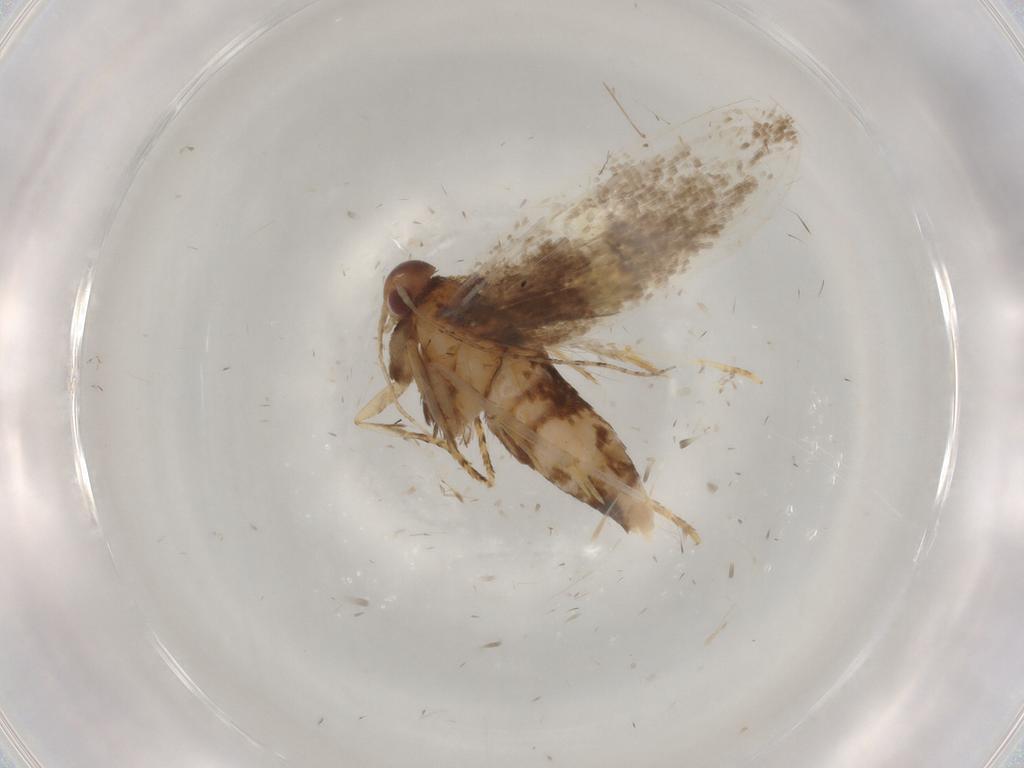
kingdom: Animalia
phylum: Arthropoda
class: Insecta
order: Lepidoptera
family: Oecophoridae
